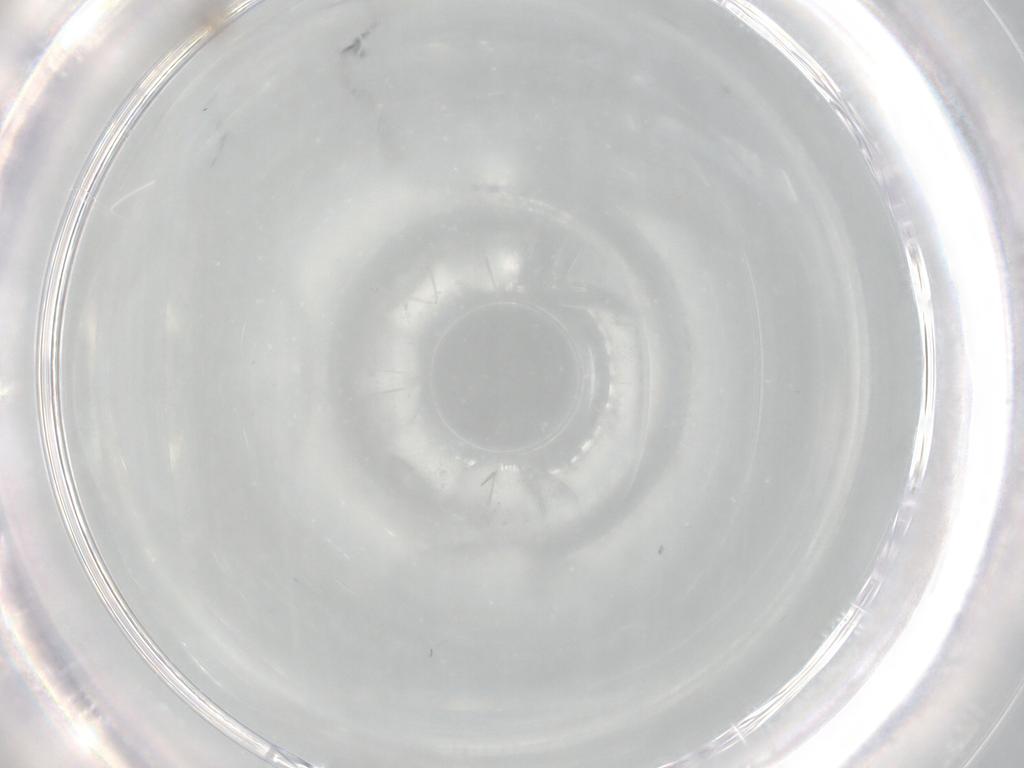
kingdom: Animalia
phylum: Arthropoda
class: Insecta
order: Diptera
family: Cecidomyiidae
